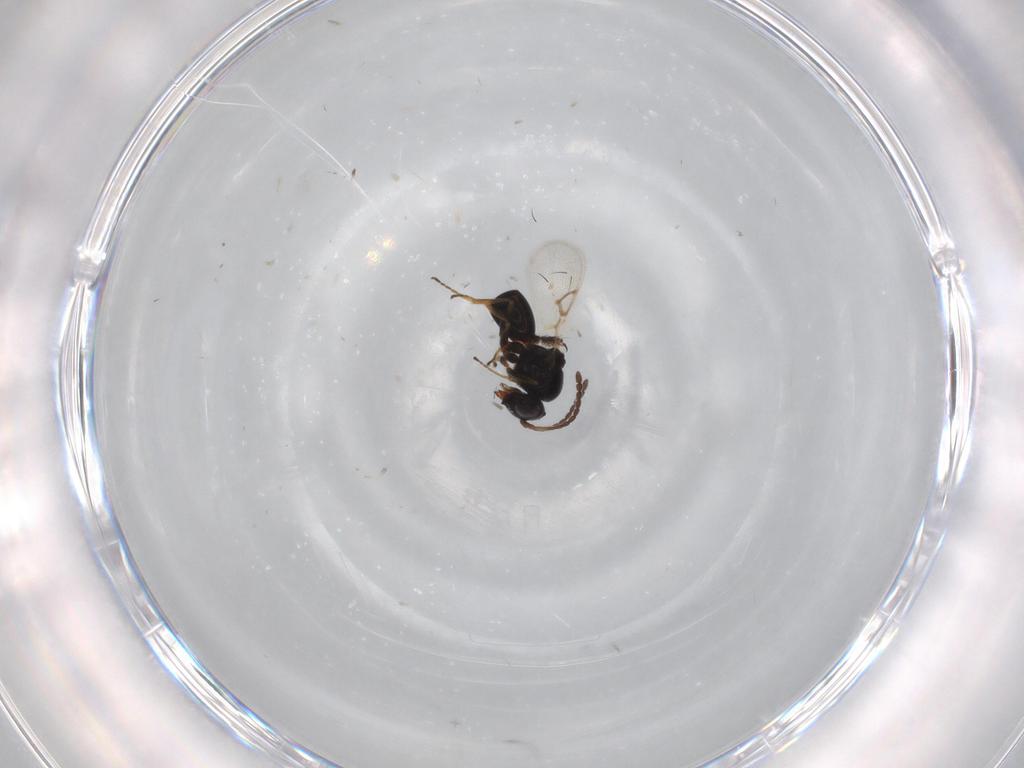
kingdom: Animalia
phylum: Arthropoda
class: Insecta
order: Hymenoptera
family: Figitidae
